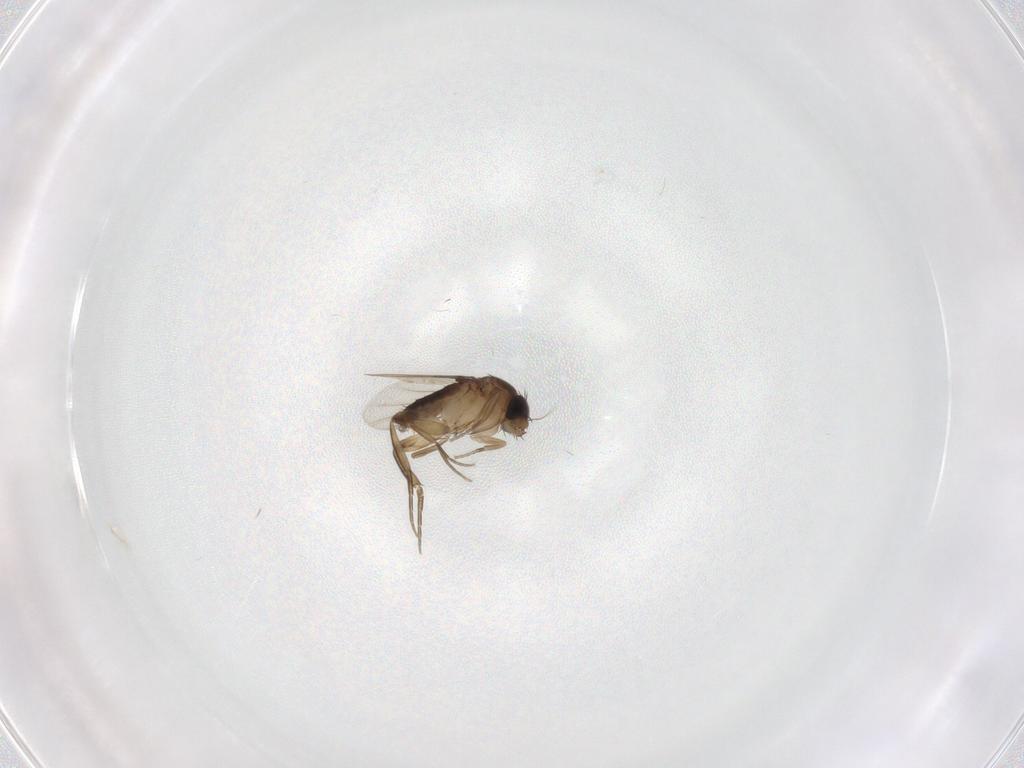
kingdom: Animalia
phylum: Arthropoda
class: Insecta
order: Diptera
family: Phoridae
